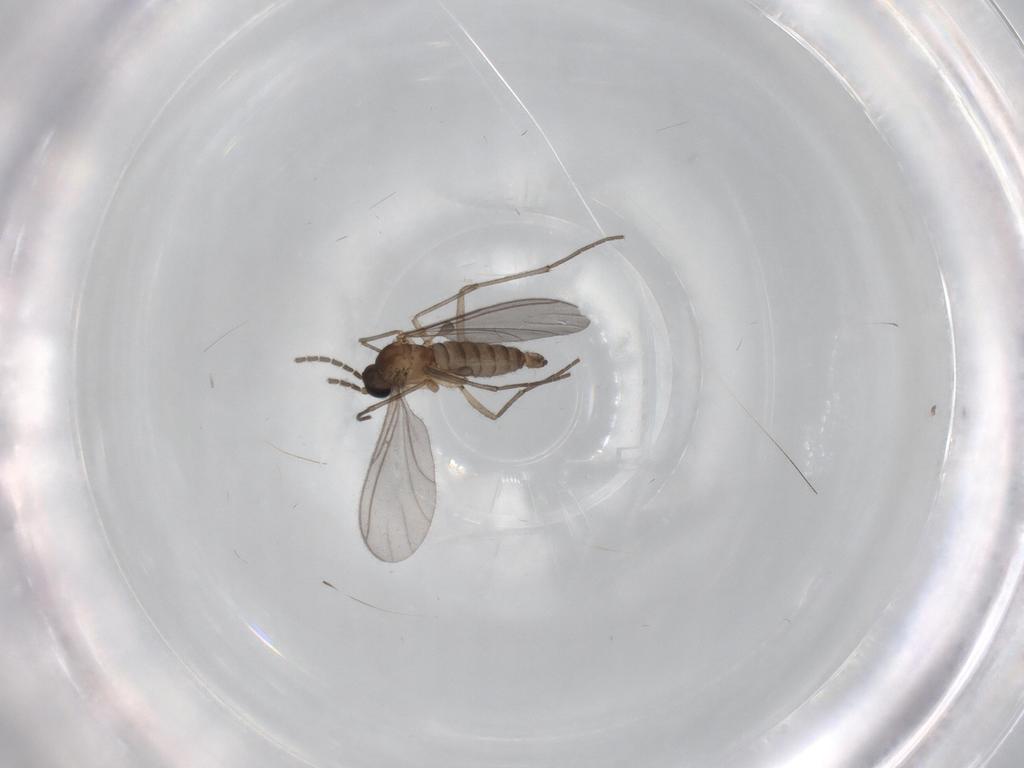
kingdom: Animalia
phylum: Arthropoda
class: Insecta
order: Diptera
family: Sciaridae
